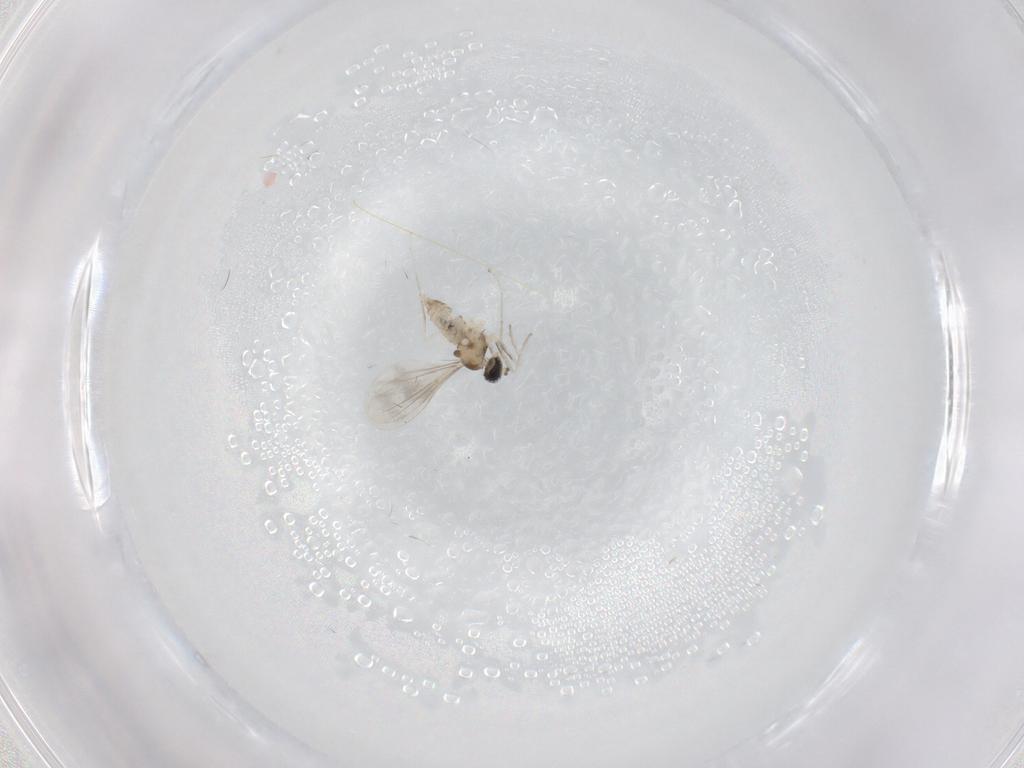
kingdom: Animalia
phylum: Arthropoda
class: Insecta
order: Diptera
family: Cecidomyiidae
